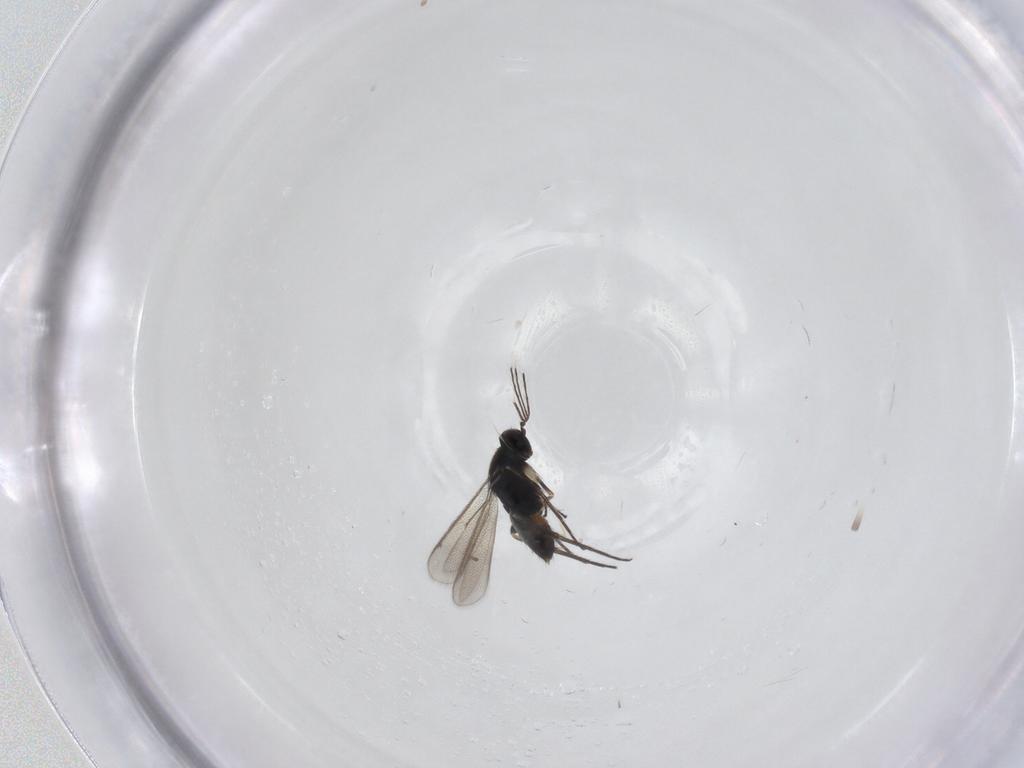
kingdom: Animalia
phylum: Arthropoda
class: Insecta
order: Hymenoptera
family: Eulophidae
